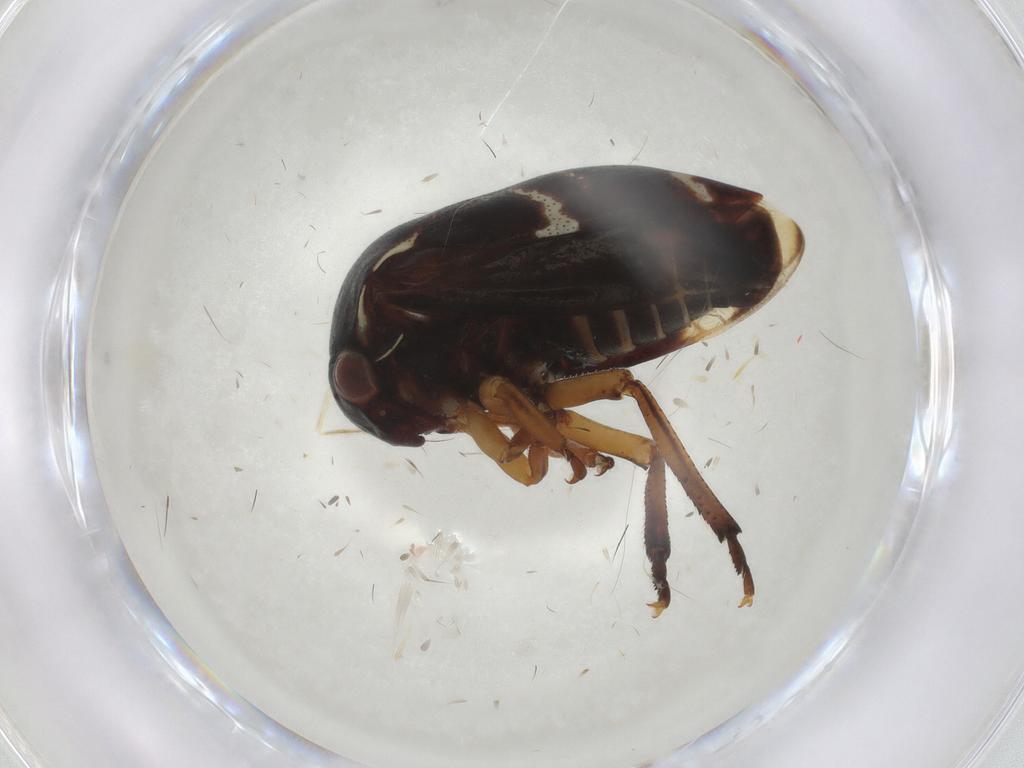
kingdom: Animalia
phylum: Arthropoda
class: Insecta
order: Hemiptera
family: Membracidae
